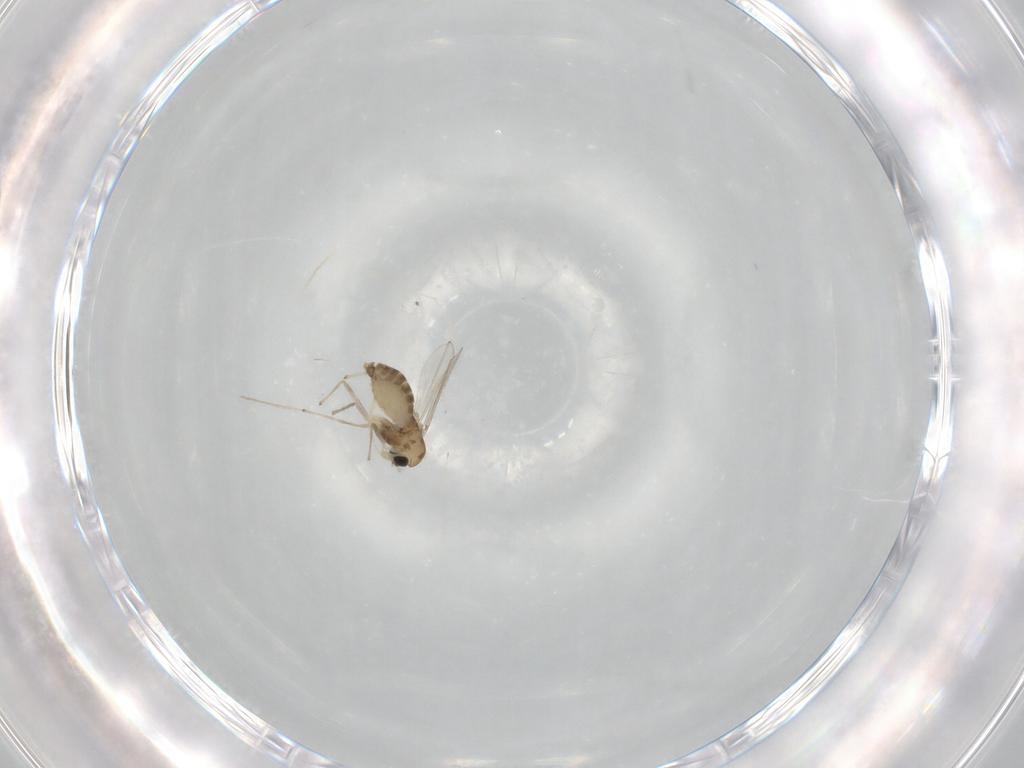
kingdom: Animalia
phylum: Arthropoda
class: Insecta
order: Diptera
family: Chironomidae
